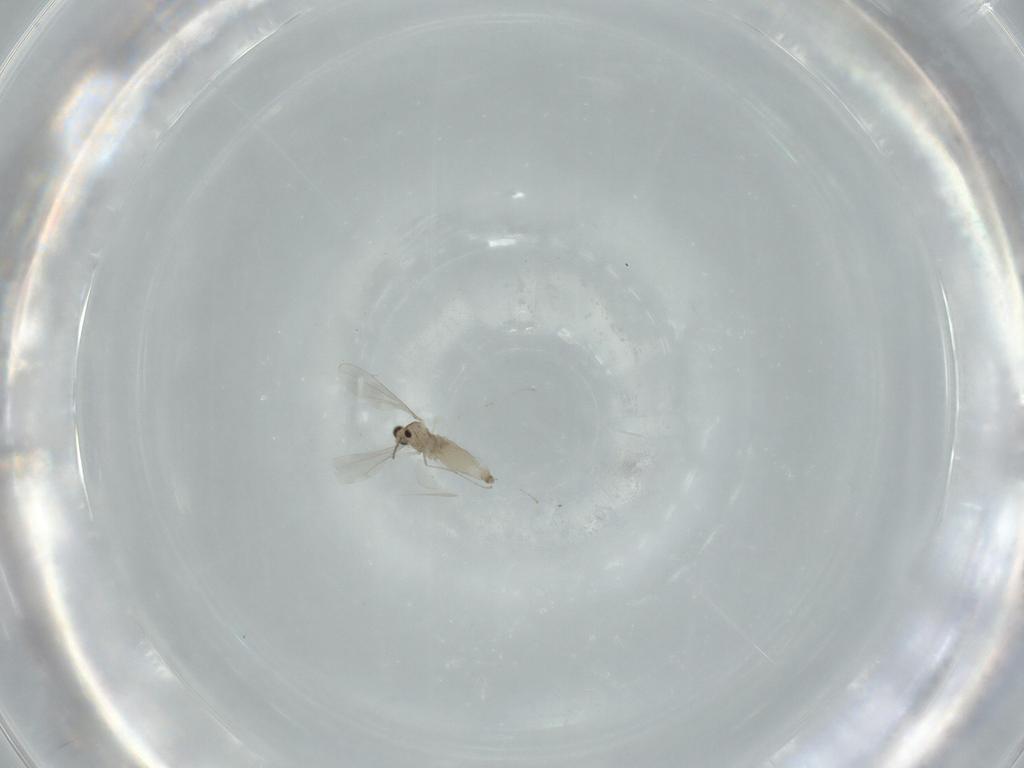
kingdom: Animalia
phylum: Arthropoda
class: Insecta
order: Diptera
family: Cecidomyiidae
